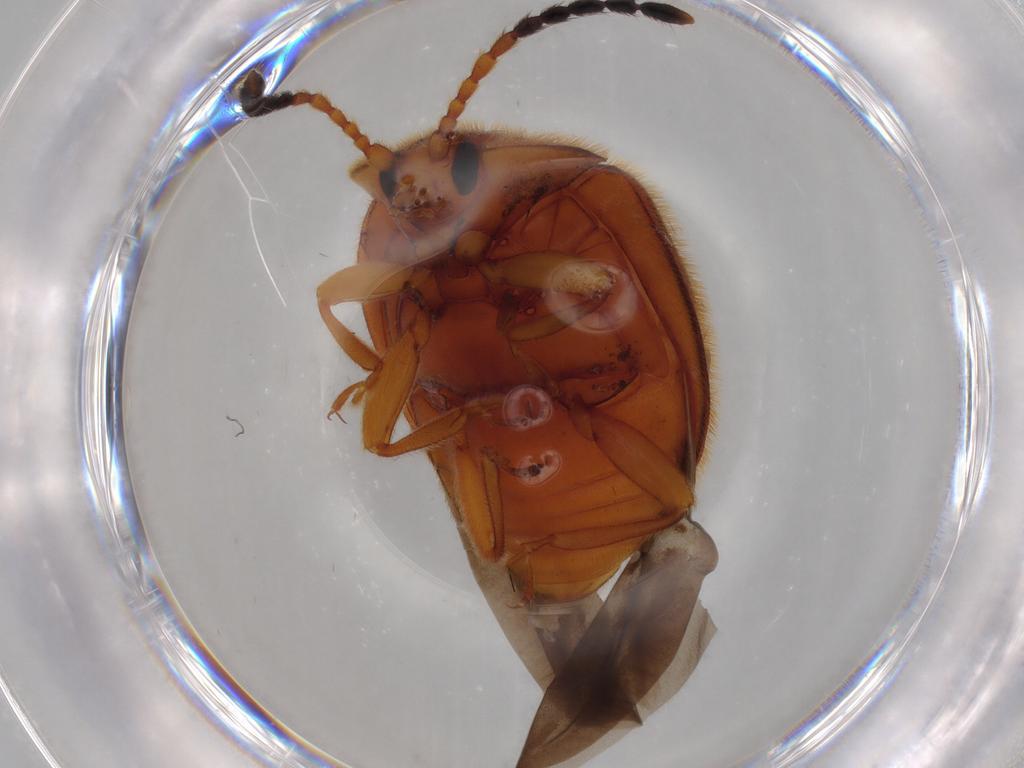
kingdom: Animalia
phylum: Arthropoda
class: Insecta
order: Coleoptera
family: Endomychidae
